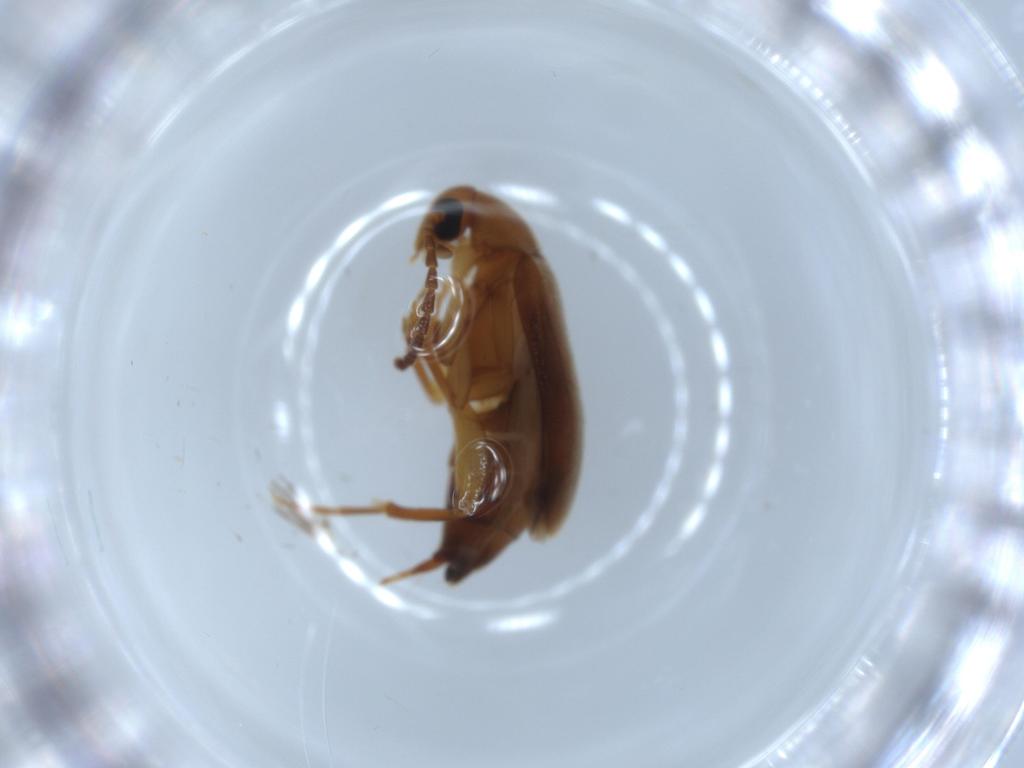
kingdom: Animalia
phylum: Arthropoda
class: Insecta
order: Coleoptera
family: Scraptiidae
